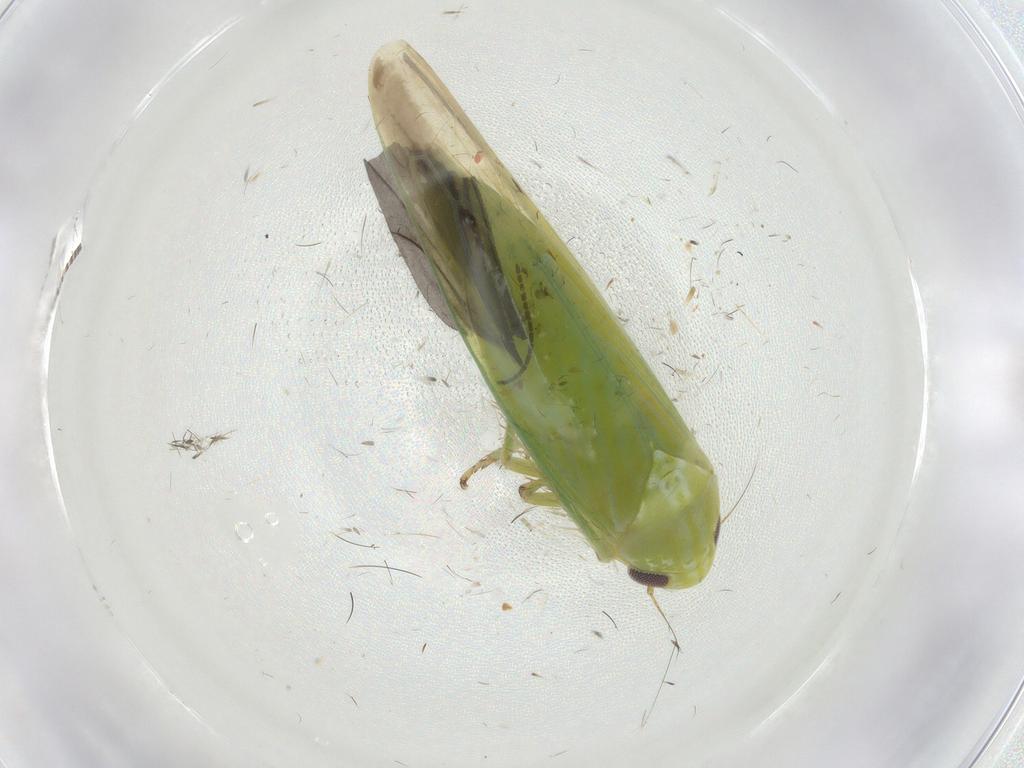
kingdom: Animalia
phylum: Arthropoda
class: Insecta
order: Hemiptera
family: Cicadellidae
